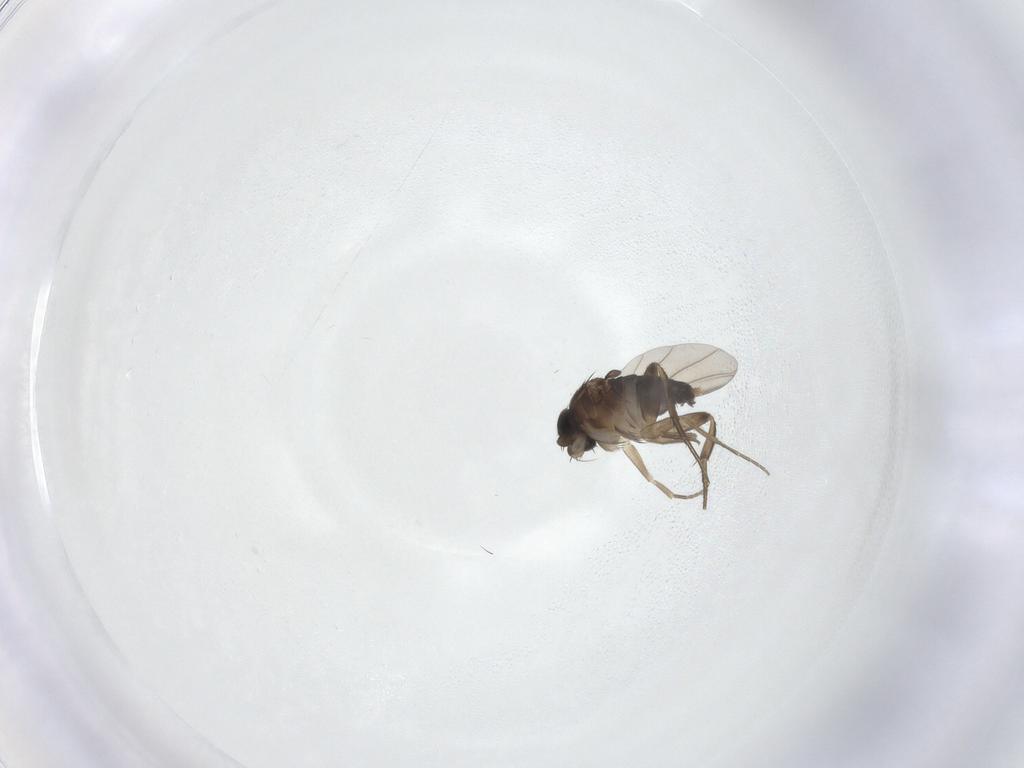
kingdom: Animalia
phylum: Arthropoda
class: Insecta
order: Diptera
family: Phoridae
